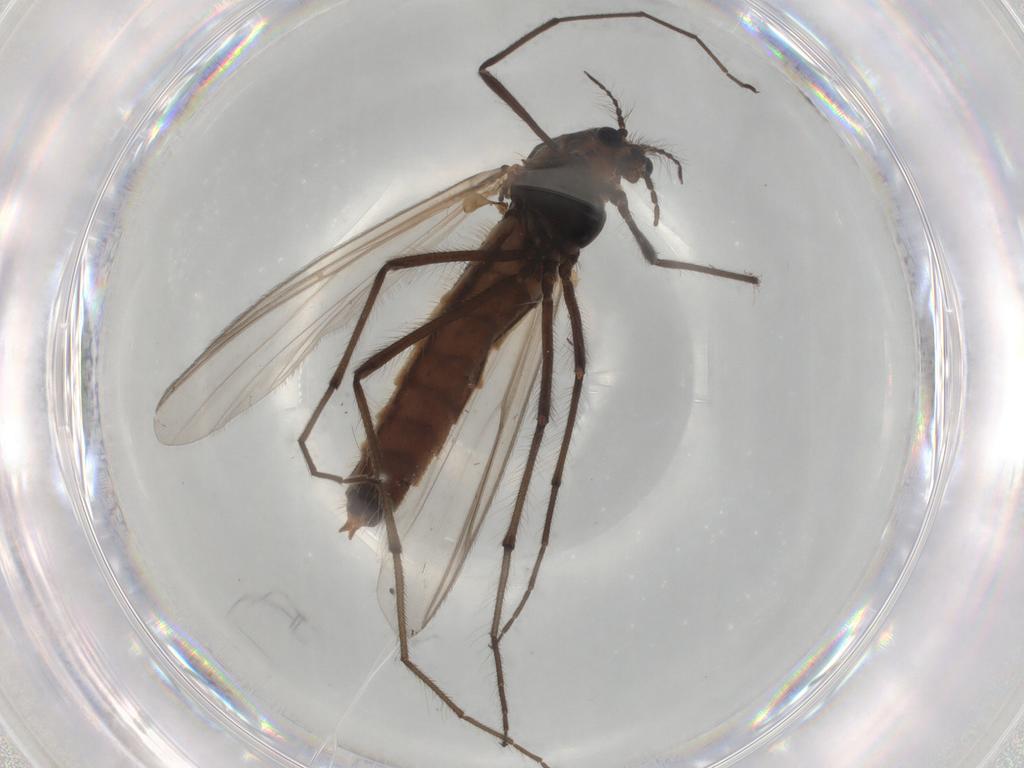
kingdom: Animalia
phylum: Arthropoda
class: Insecta
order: Diptera
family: Chironomidae
